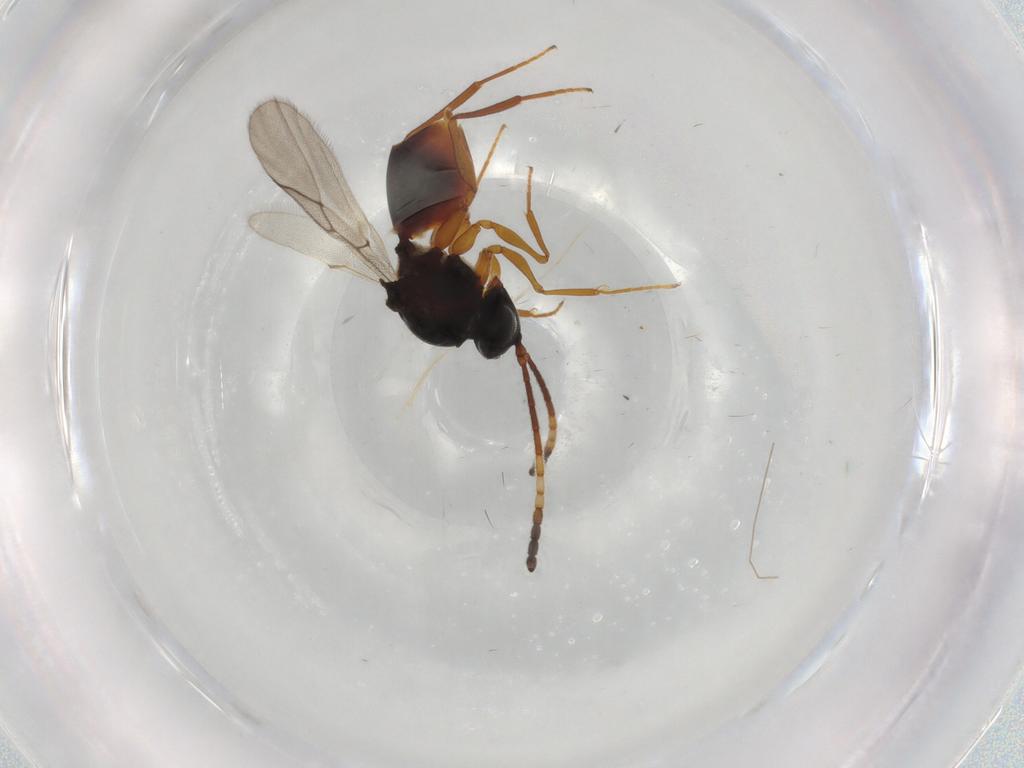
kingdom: Animalia
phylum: Arthropoda
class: Insecta
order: Hymenoptera
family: Figitidae
